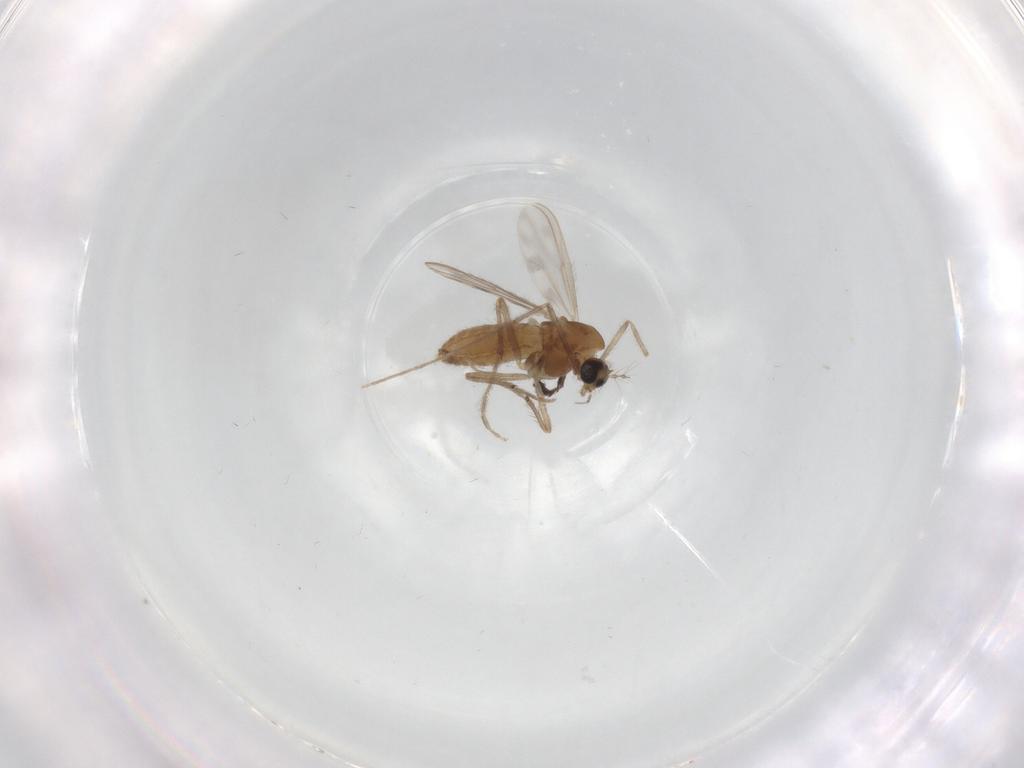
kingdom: Animalia
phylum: Arthropoda
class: Insecta
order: Diptera
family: Chironomidae
